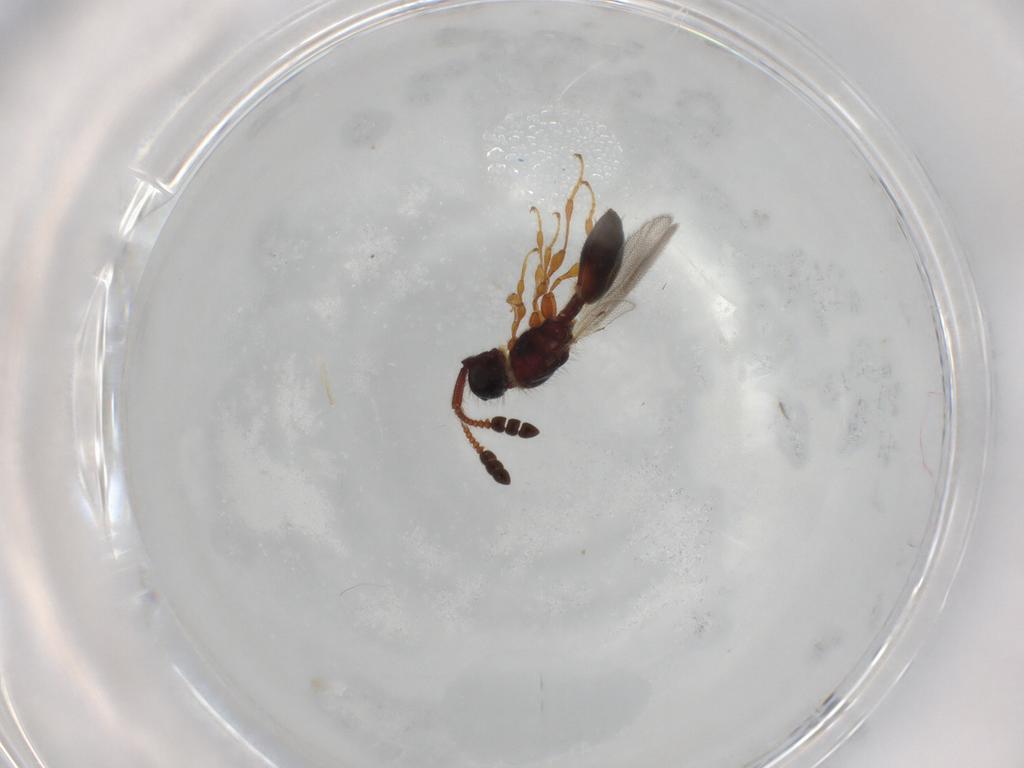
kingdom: Animalia
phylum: Arthropoda
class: Insecta
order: Hymenoptera
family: Diapriidae
